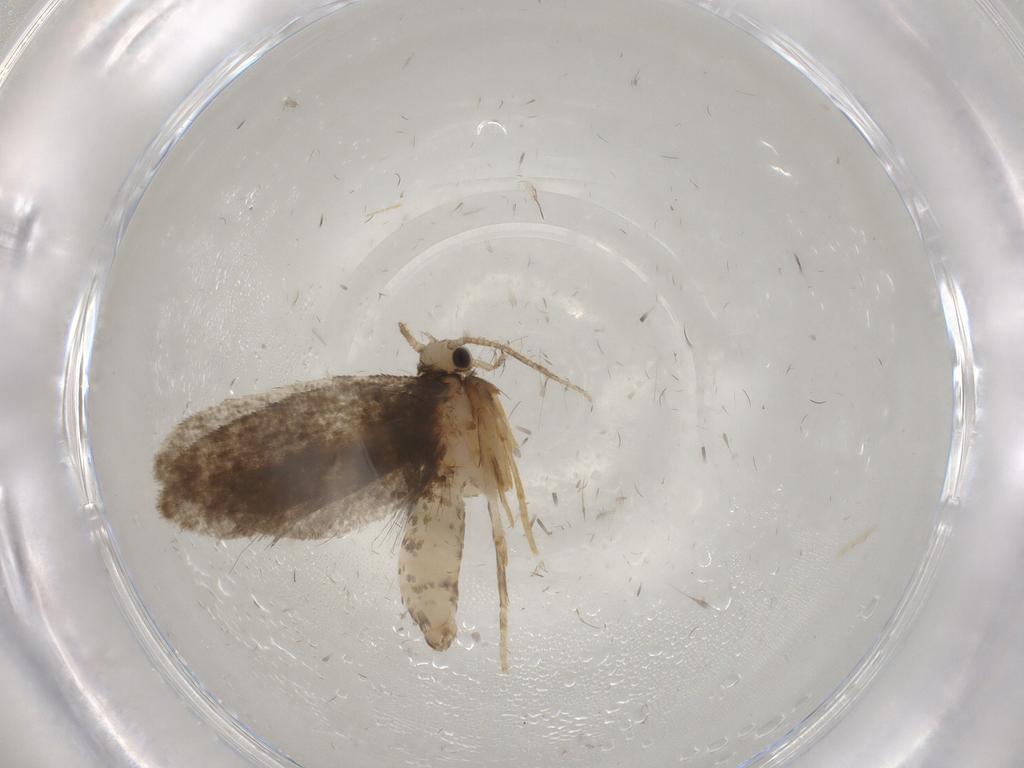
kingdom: Animalia
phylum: Arthropoda
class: Insecta
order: Lepidoptera
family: Psychidae
